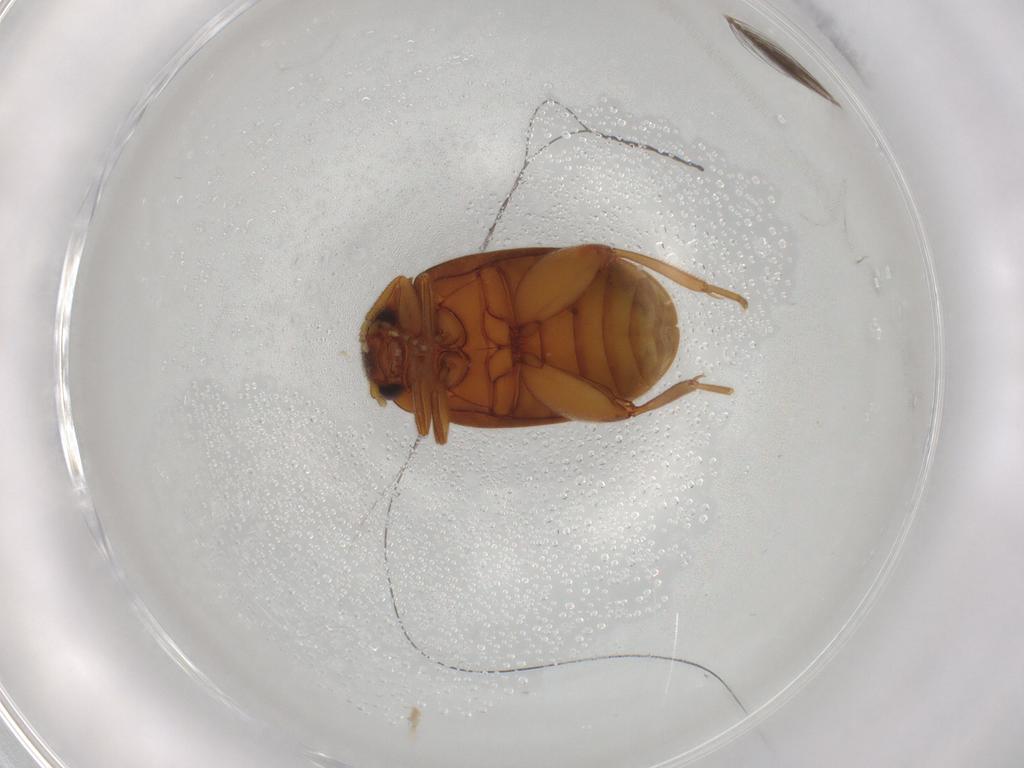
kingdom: Animalia
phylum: Arthropoda
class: Insecta
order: Coleoptera
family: Scirtidae
